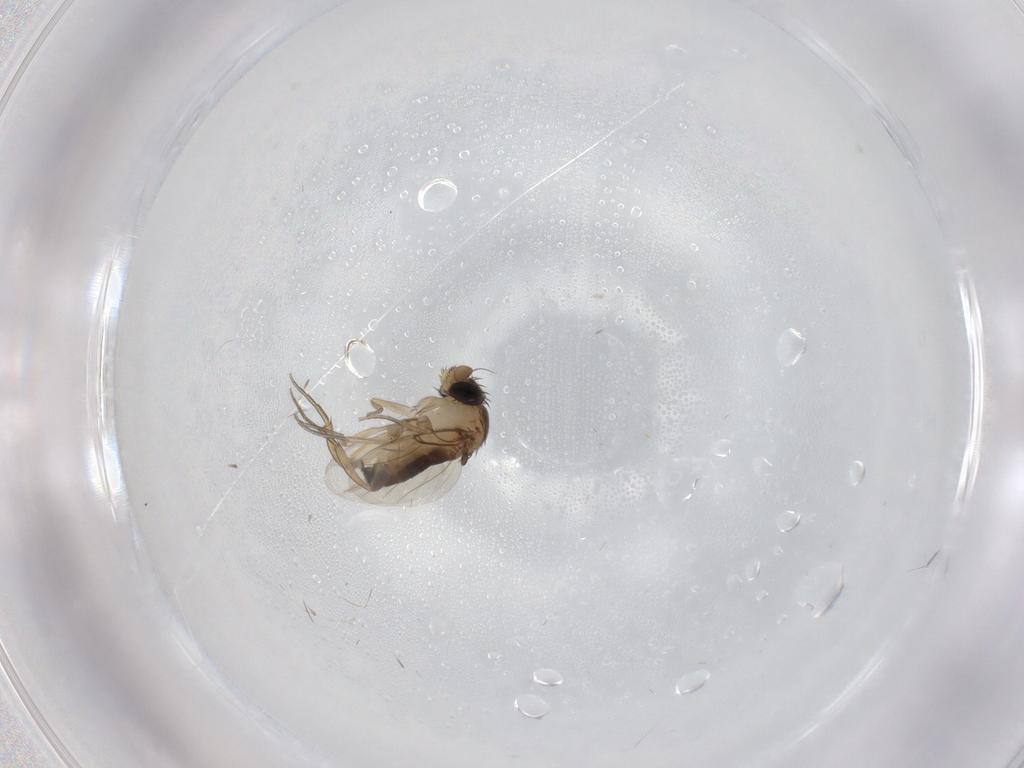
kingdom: Animalia
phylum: Arthropoda
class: Insecta
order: Diptera
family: Phoridae
